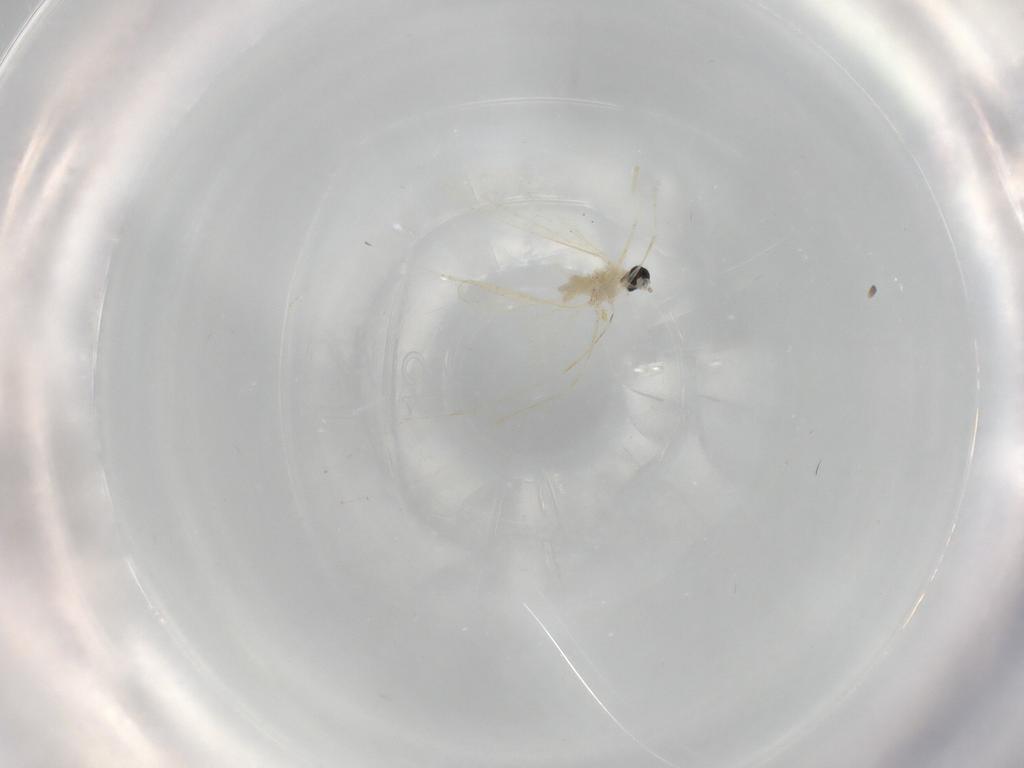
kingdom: Animalia
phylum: Arthropoda
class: Insecta
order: Diptera
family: Cecidomyiidae
